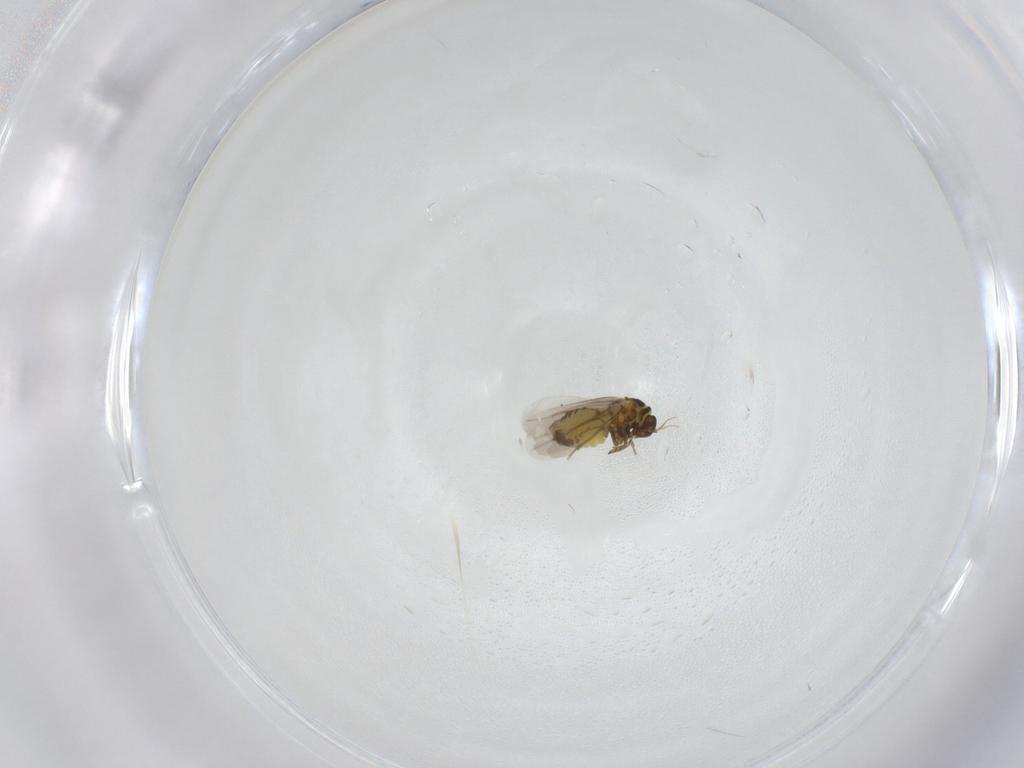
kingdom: Animalia
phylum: Arthropoda
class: Insecta
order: Hemiptera
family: Aleyrodidae
